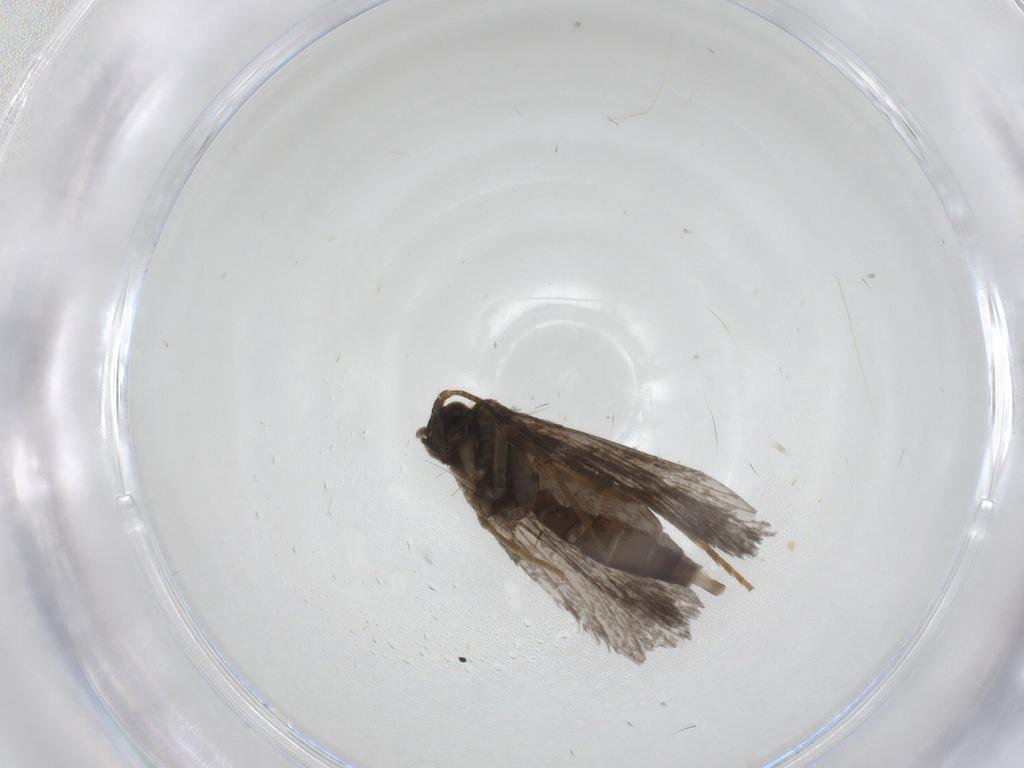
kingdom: Animalia
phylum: Arthropoda
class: Insecta
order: Lepidoptera
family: Micropterigidae
